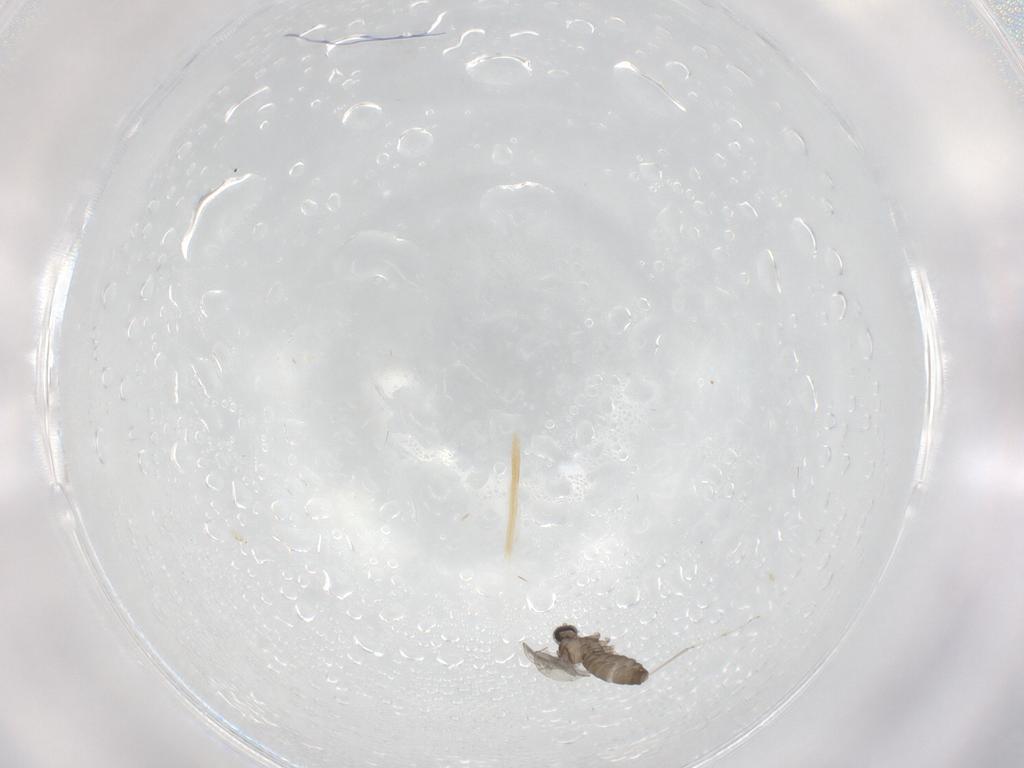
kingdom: Animalia
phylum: Arthropoda
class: Insecta
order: Diptera
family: Cecidomyiidae
